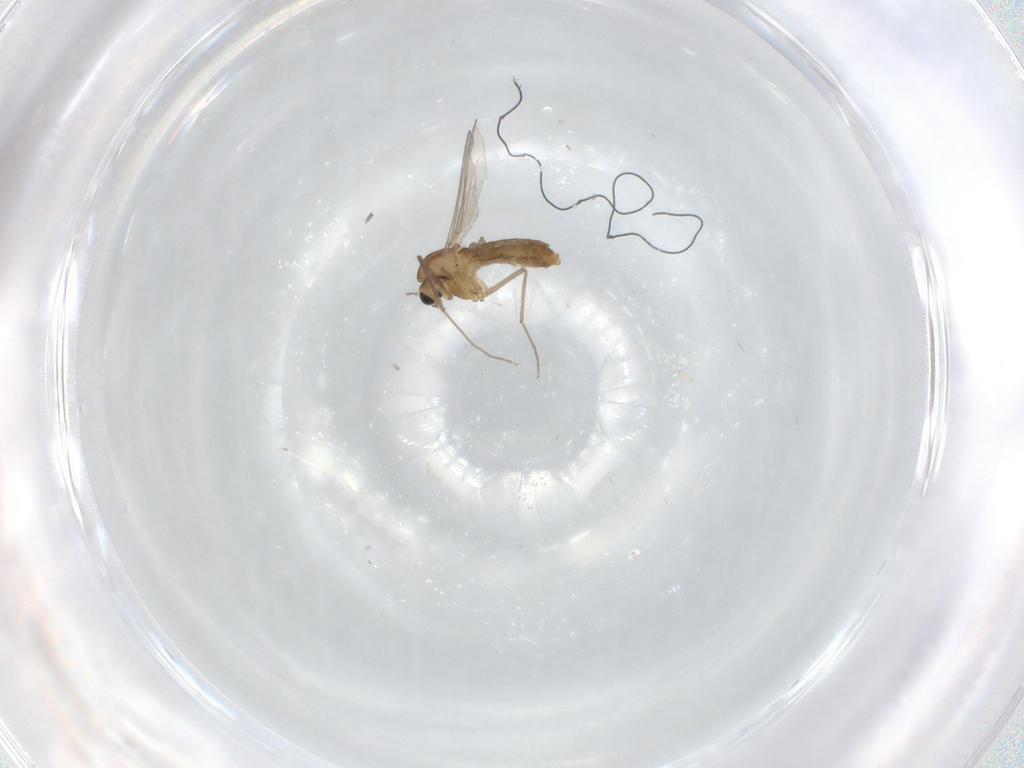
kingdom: Animalia
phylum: Arthropoda
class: Insecta
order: Diptera
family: Chironomidae
